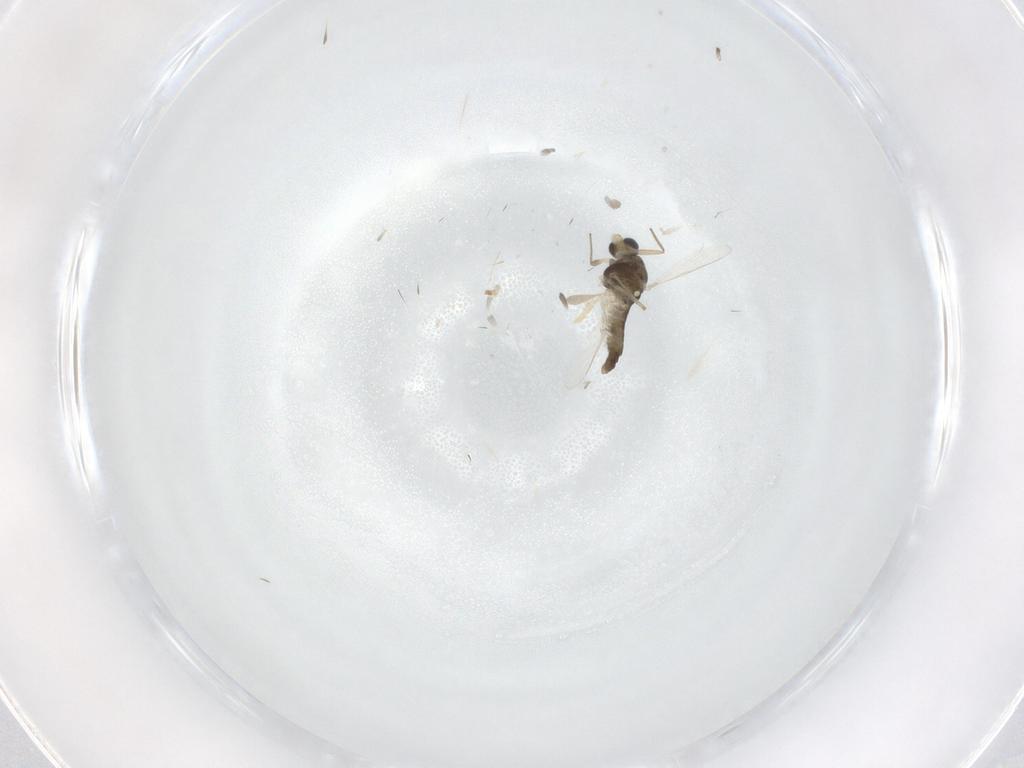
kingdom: Animalia
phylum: Arthropoda
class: Insecta
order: Diptera
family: Chironomidae
